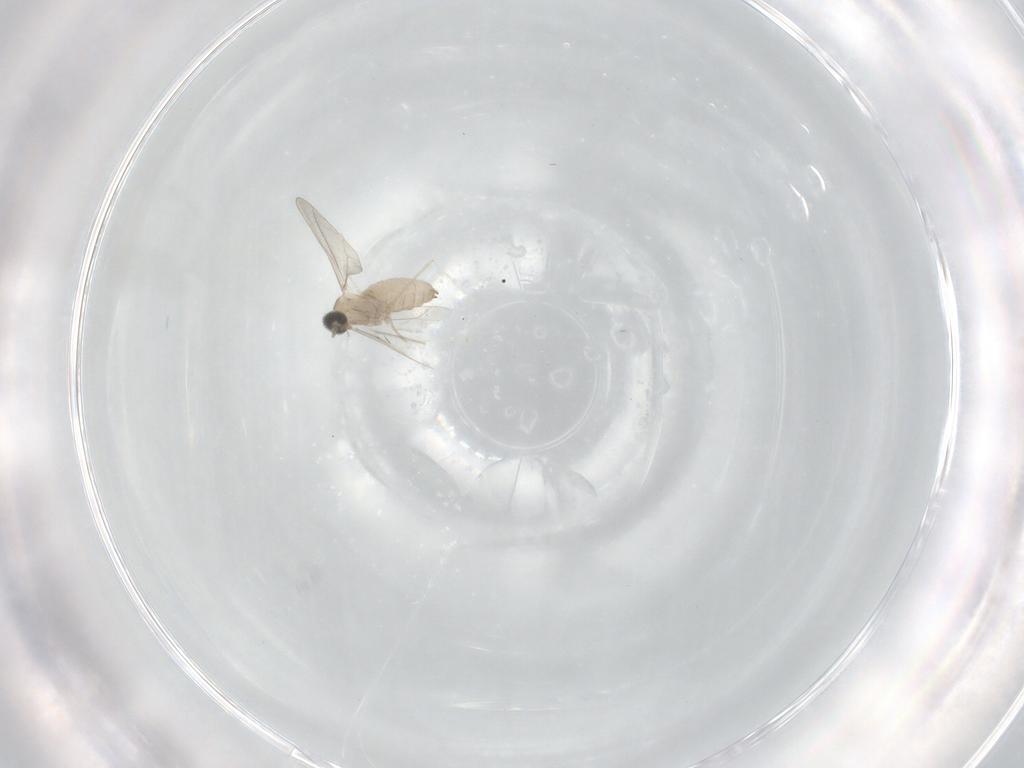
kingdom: Animalia
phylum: Arthropoda
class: Insecta
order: Diptera
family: Cecidomyiidae
